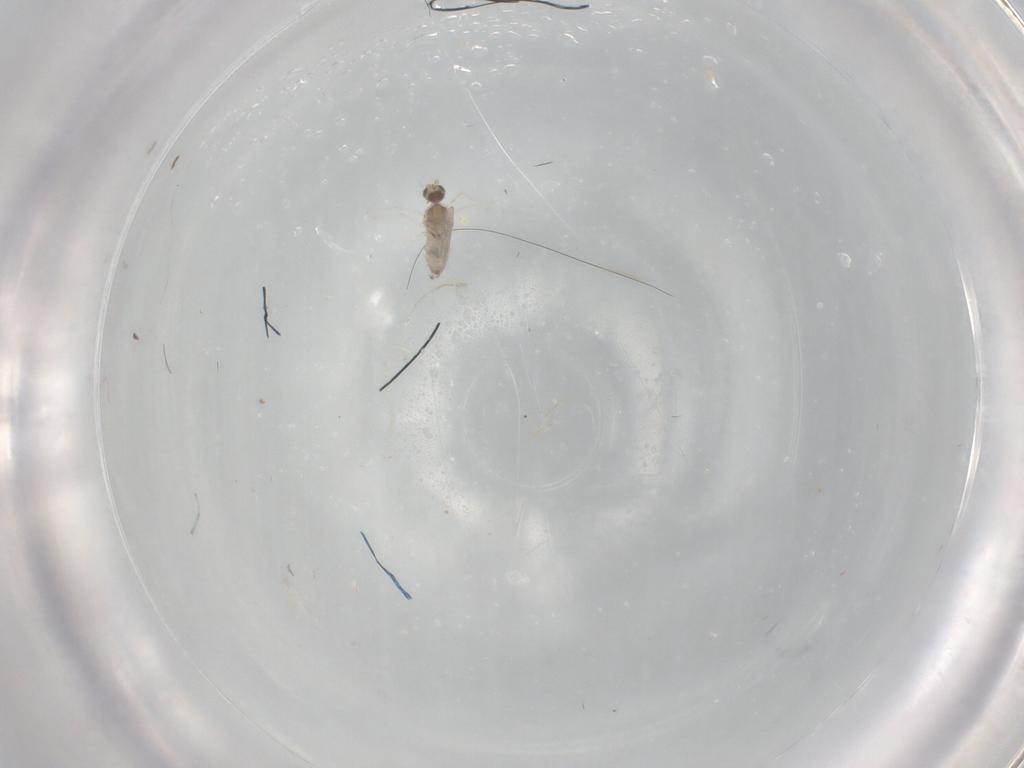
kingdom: Animalia
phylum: Arthropoda
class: Insecta
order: Diptera
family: Cecidomyiidae
